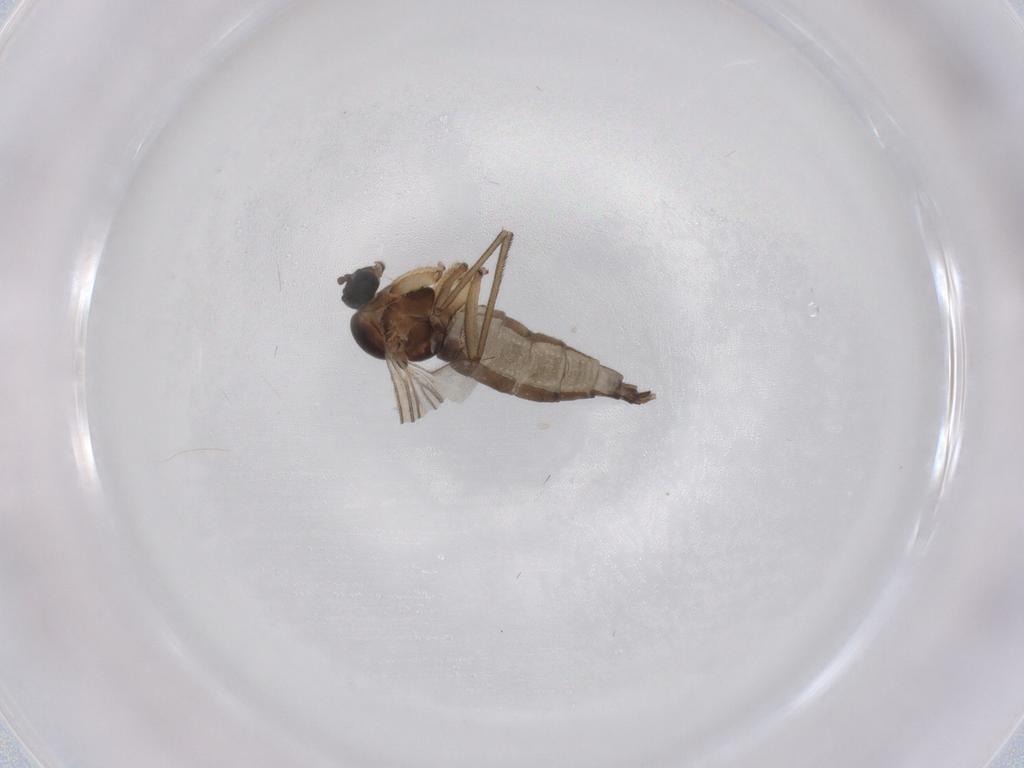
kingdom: Animalia
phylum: Arthropoda
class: Insecta
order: Diptera
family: Sciaridae
